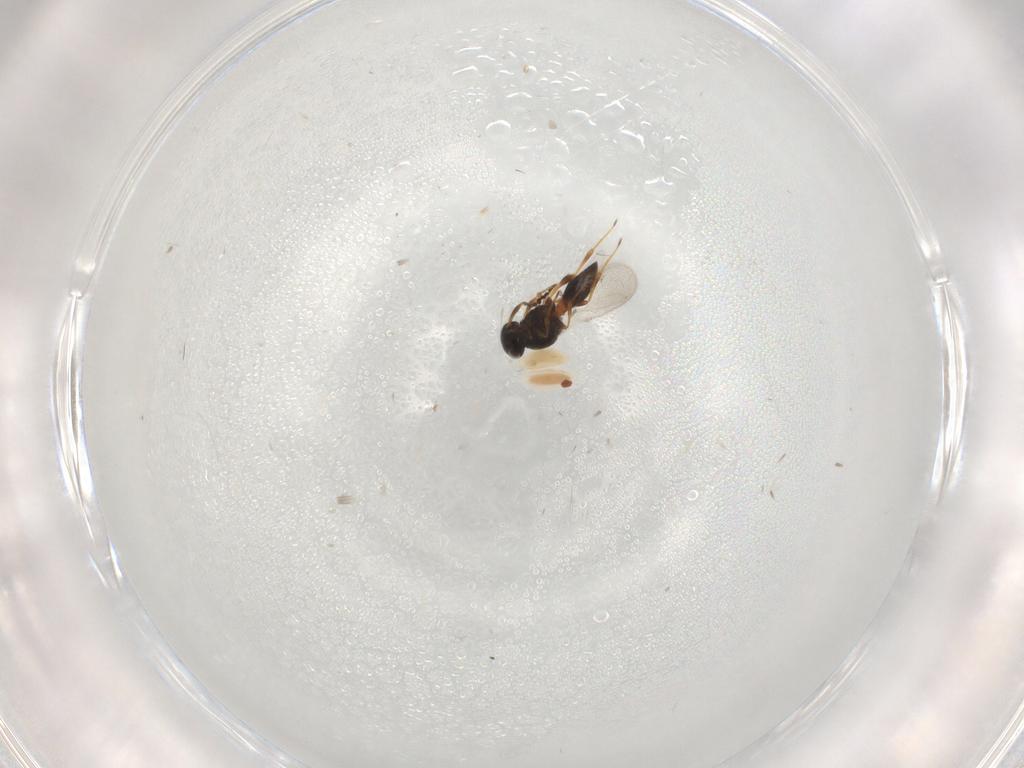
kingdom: Animalia
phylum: Arthropoda
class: Insecta
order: Hymenoptera
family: Platygastridae
